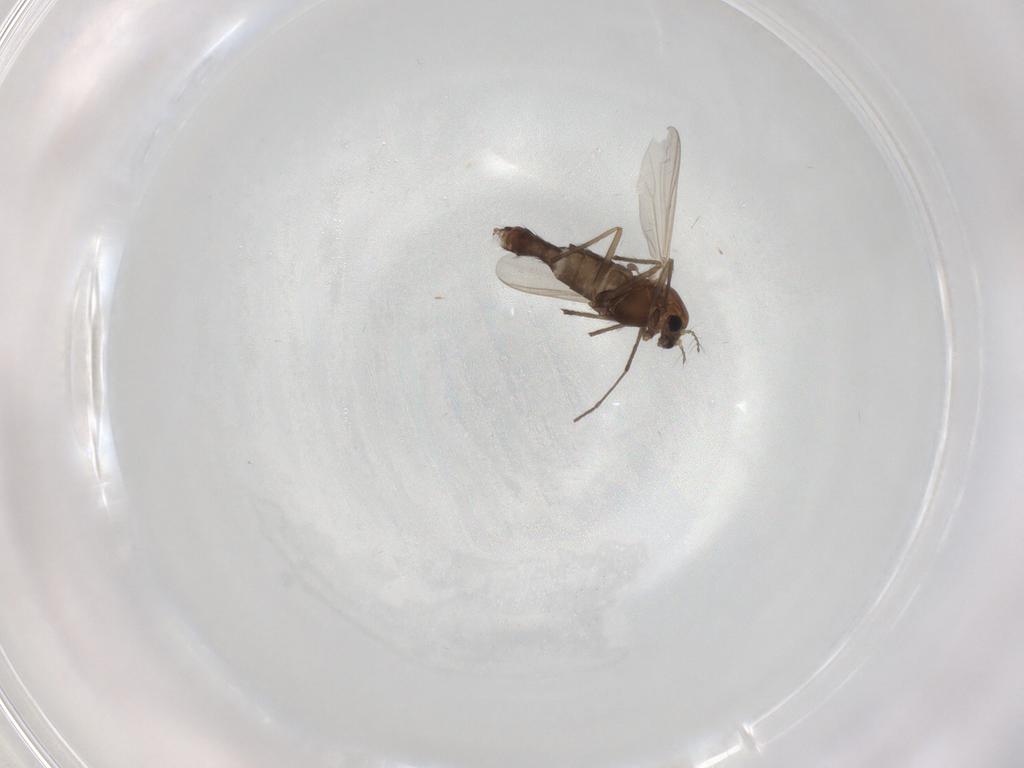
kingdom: Animalia
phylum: Arthropoda
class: Insecta
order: Diptera
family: Chironomidae
